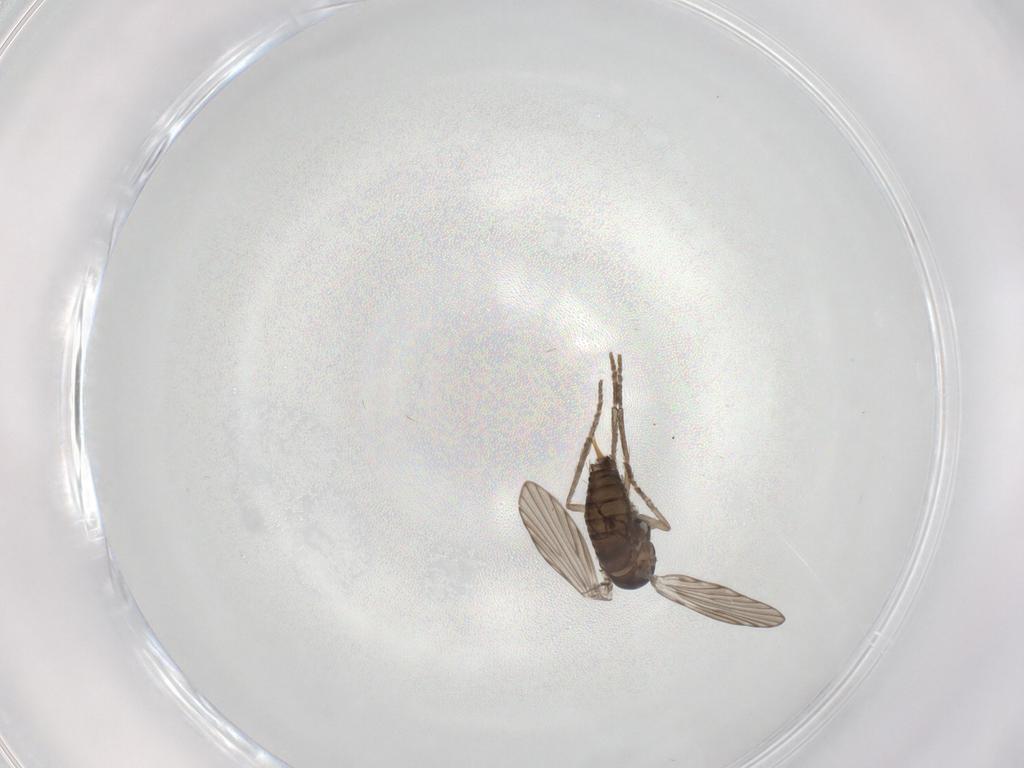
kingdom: Animalia
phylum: Arthropoda
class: Insecta
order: Diptera
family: Psychodidae
